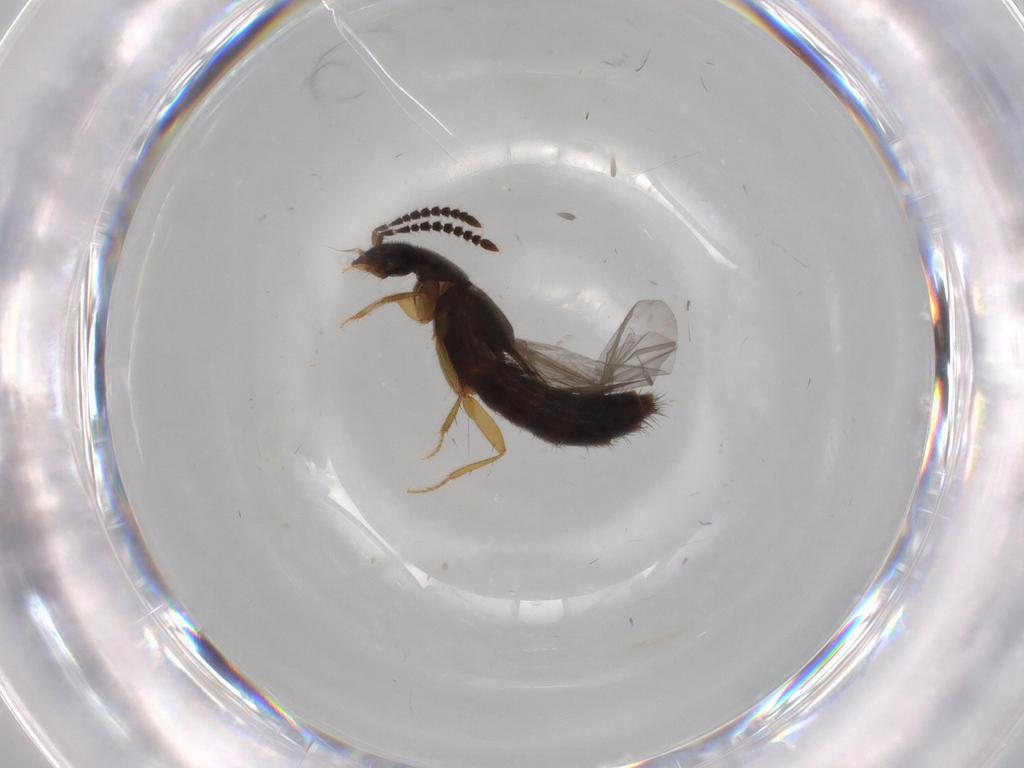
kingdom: Animalia
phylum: Arthropoda
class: Insecta
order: Coleoptera
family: Staphylinidae
